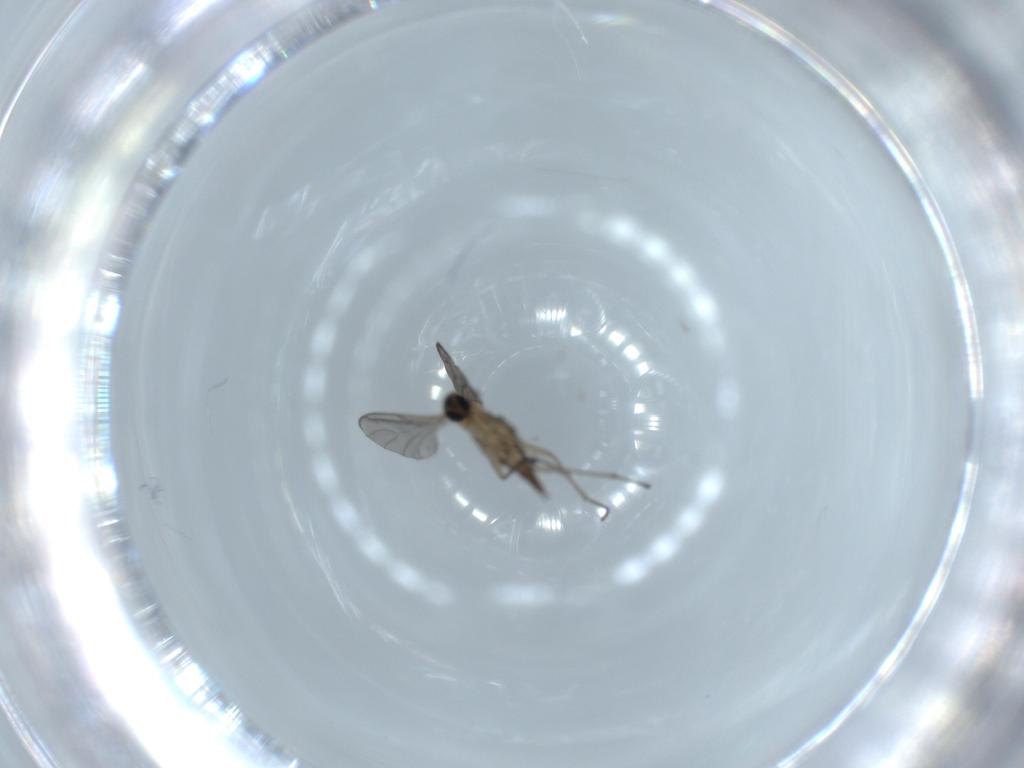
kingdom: Animalia
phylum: Arthropoda
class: Insecta
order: Diptera
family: Sciaridae
